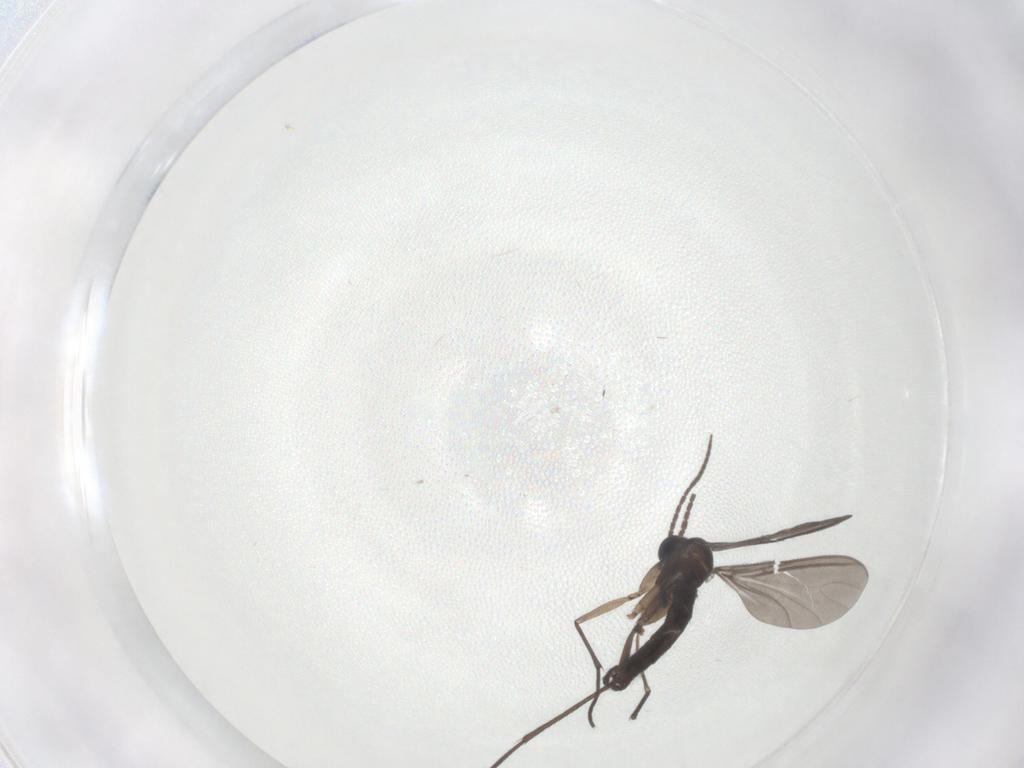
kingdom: Animalia
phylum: Arthropoda
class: Insecta
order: Diptera
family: Sciaridae
